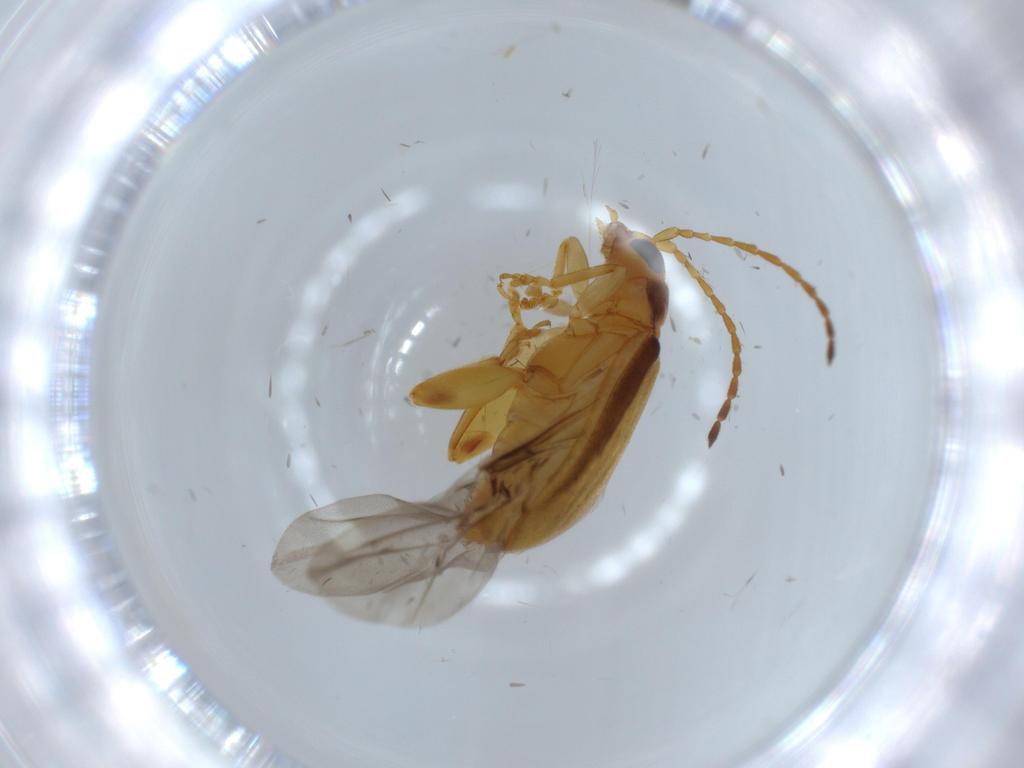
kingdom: Animalia
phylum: Arthropoda
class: Insecta
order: Coleoptera
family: Chrysomelidae
